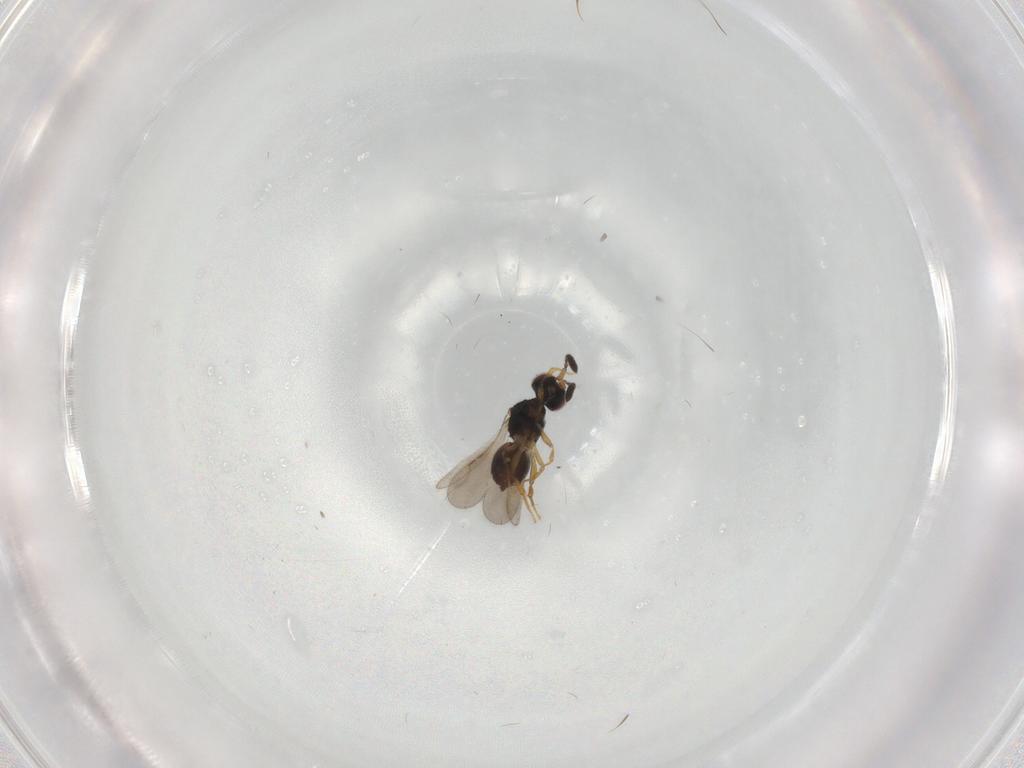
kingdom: Animalia
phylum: Arthropoda
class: Insecta
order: Hymenoptera
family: Ceraphronidae
